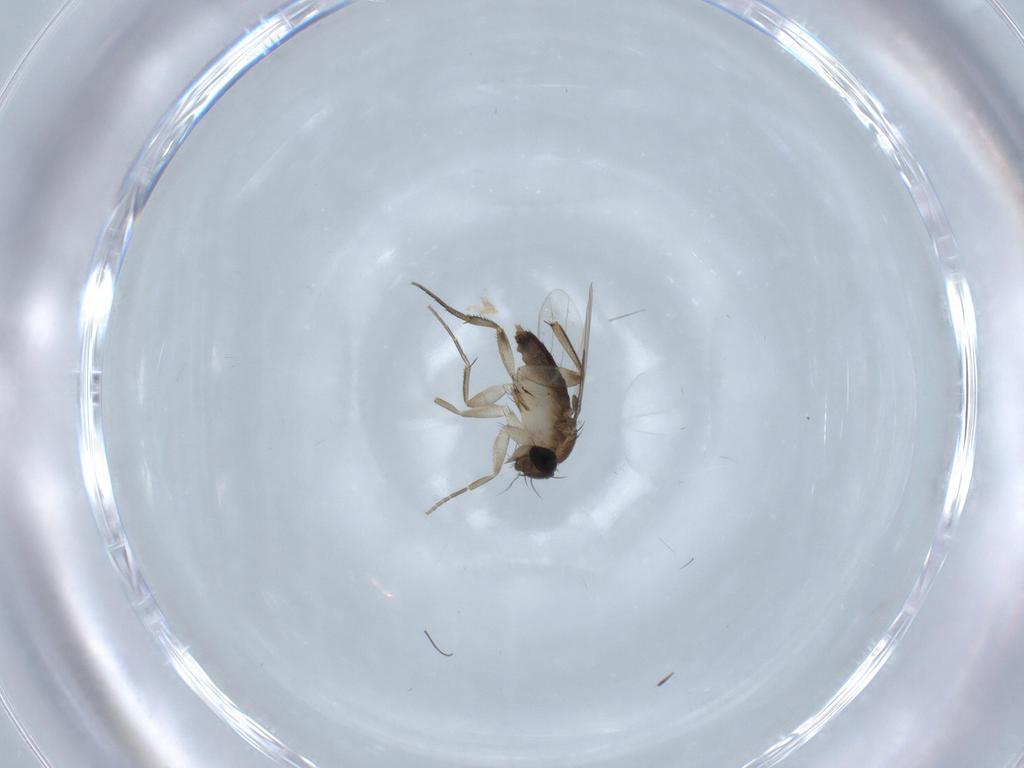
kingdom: Animalia
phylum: Arthropoda
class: Insecta
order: Diptera
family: Phoridae
